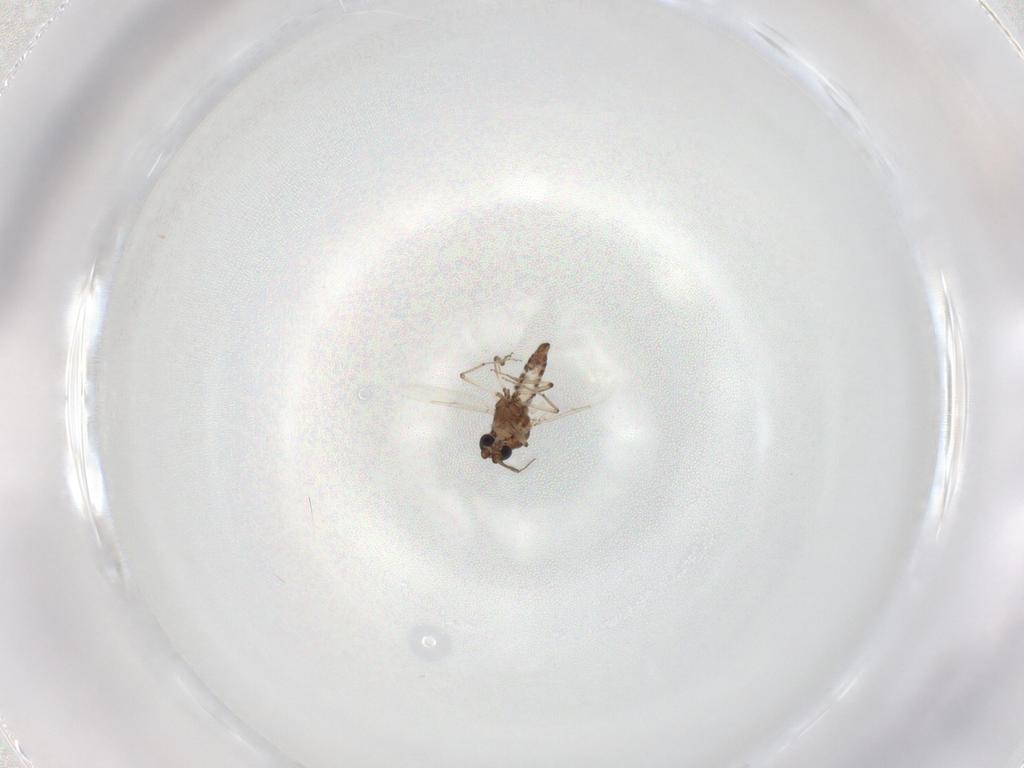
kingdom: Animalia
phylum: Arthropoda
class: Insecta
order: Diptera
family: Ceratopogonidae
